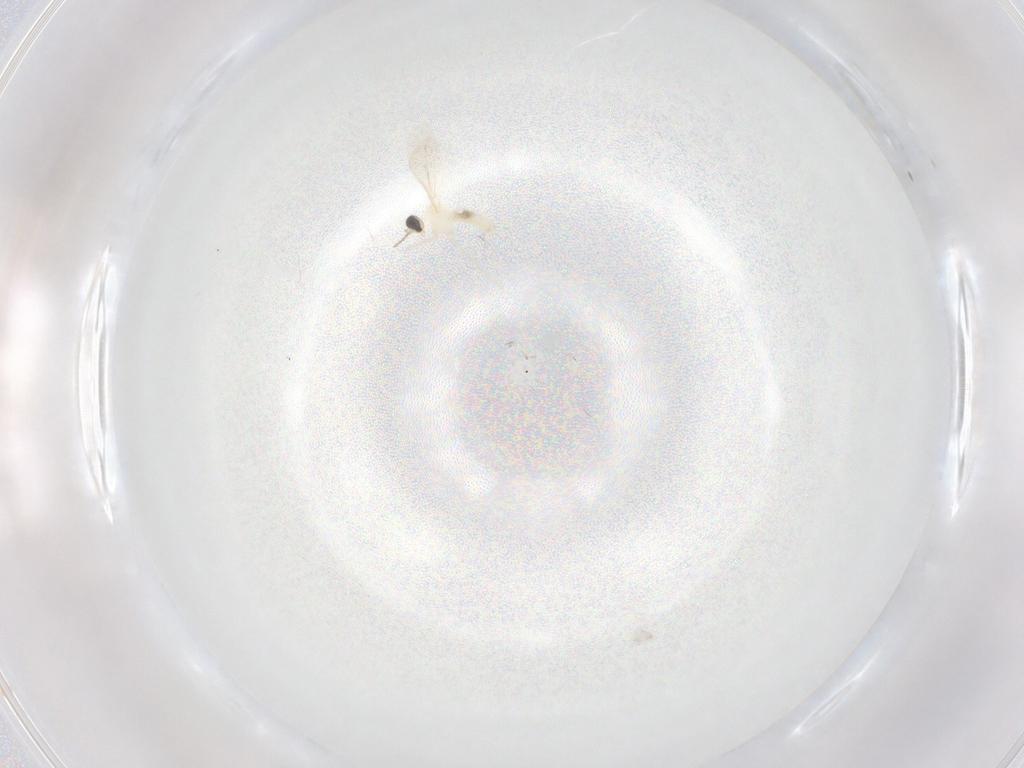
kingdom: Animalia
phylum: Arthropoda
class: Insecta
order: Diptera
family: Cecidomyiidae
